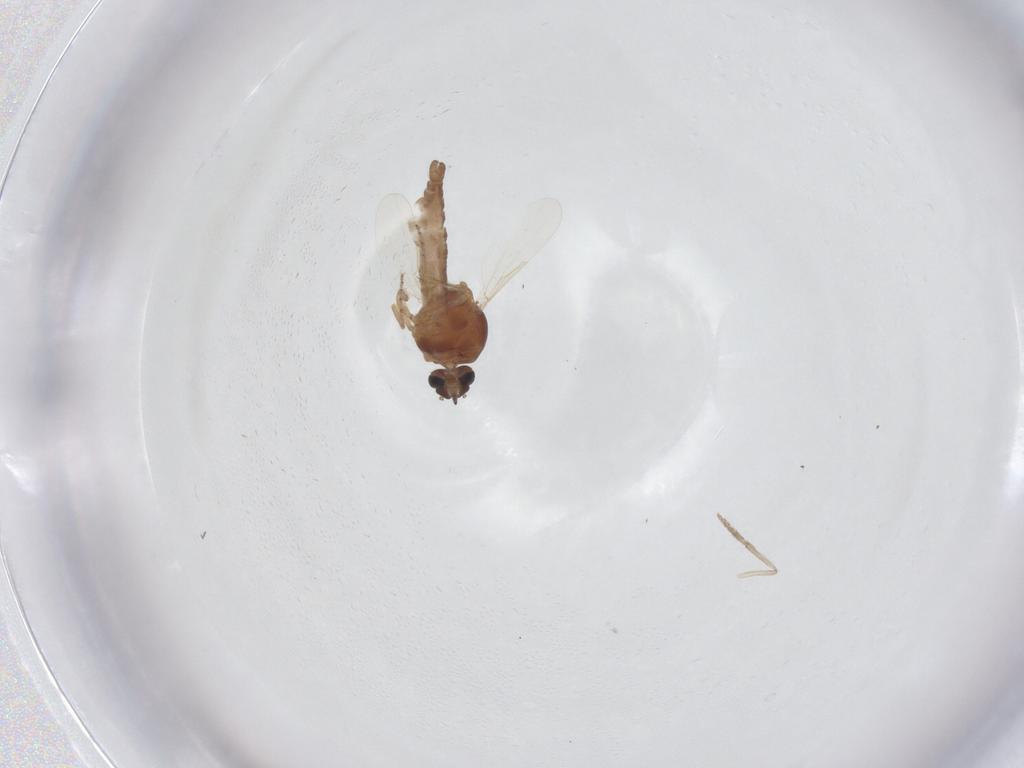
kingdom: Animalia
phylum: Arthropoda
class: Insecta
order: Diptera
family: Ceratopogonidae
